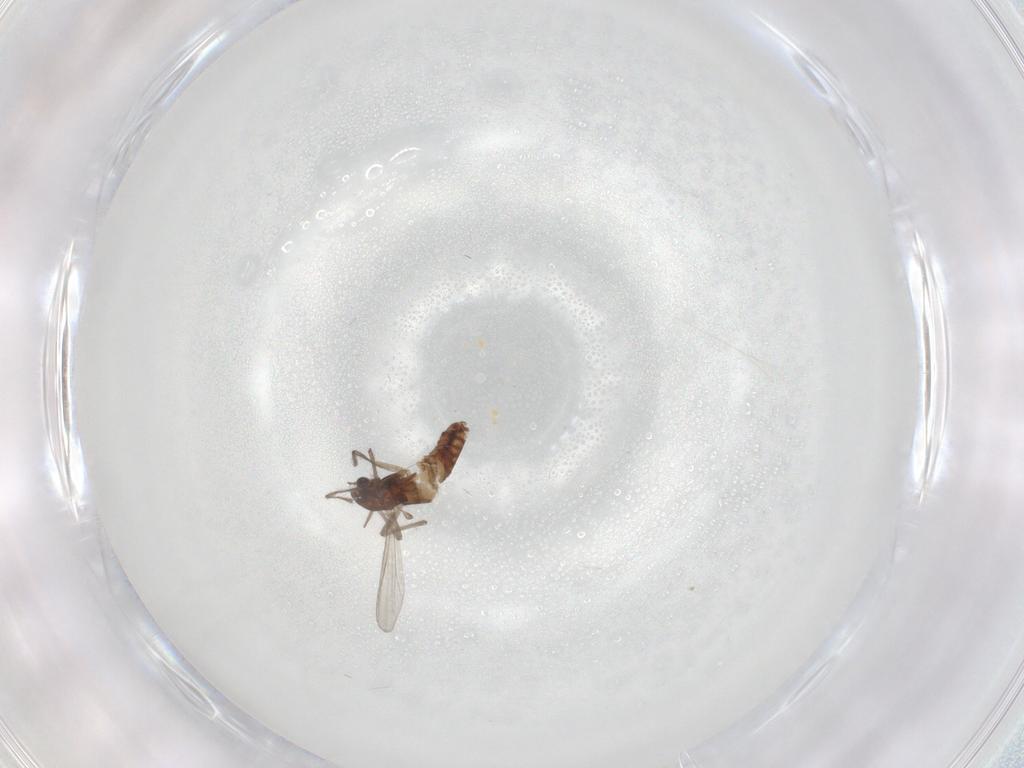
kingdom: Animalia
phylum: Arthropoda
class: Insecta
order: Diptera
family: Chironomidae
